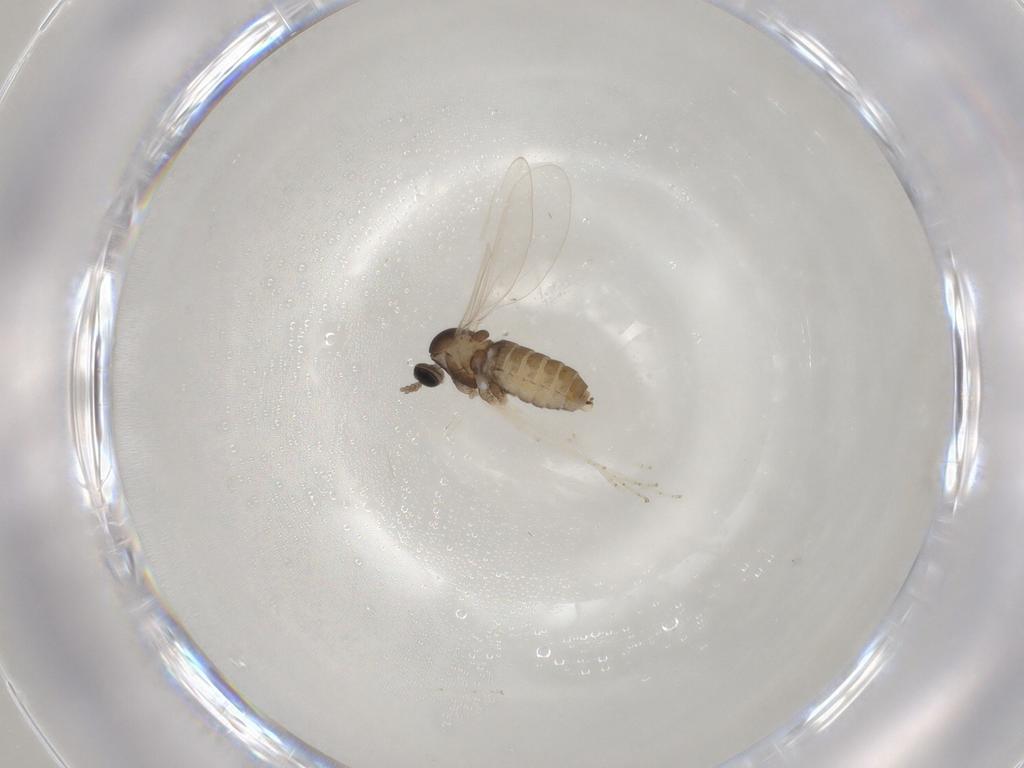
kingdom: Animalia
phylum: Arthropoda
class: Insecta
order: Diptera
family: Cecidomyiidae
